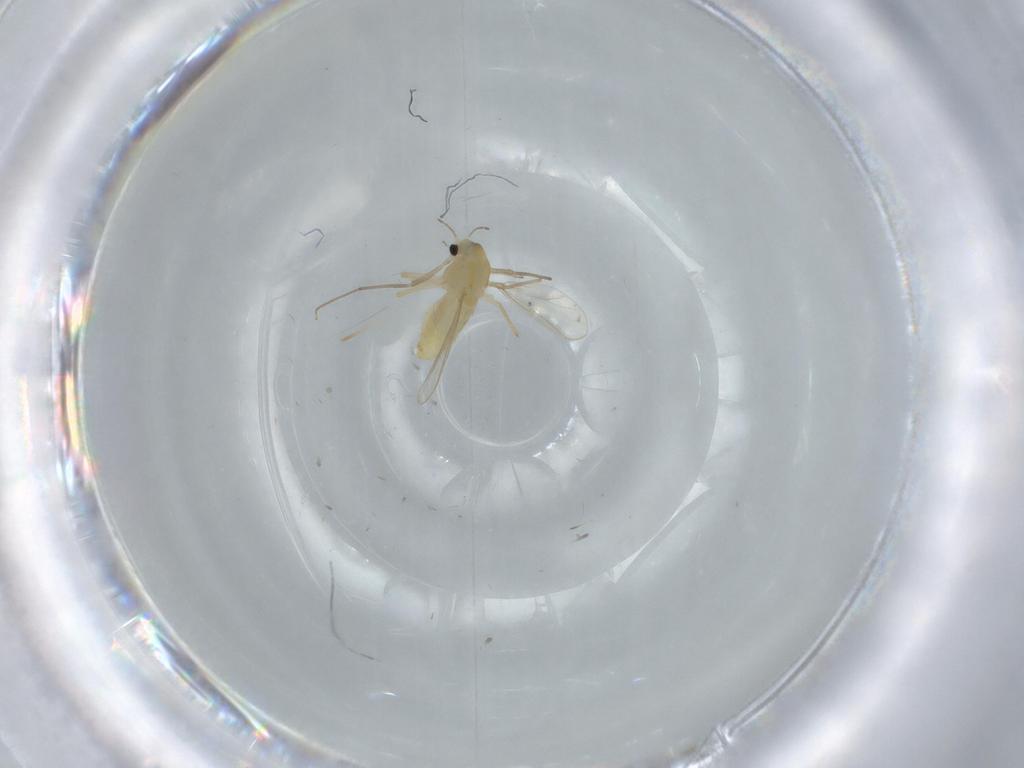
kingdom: Animalia
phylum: Arthropoda
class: Insecta
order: Diptera
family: Chironomidae
